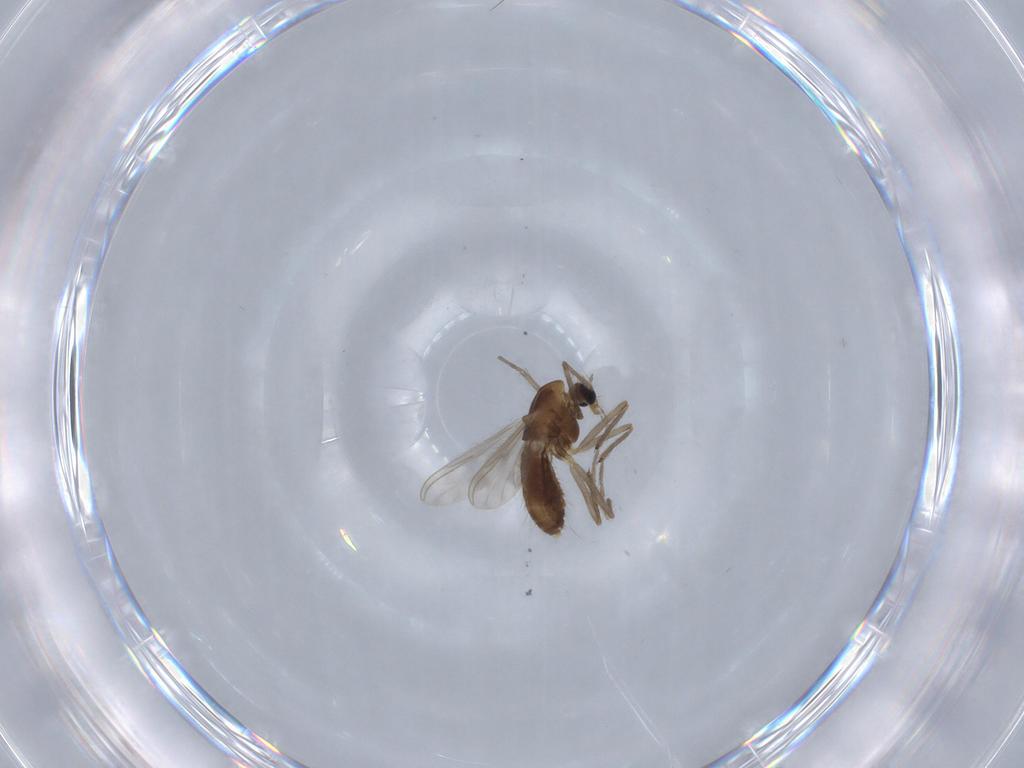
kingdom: Animalia
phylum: Arthropoda
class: Insecta
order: Diptera
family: Chironomidae
